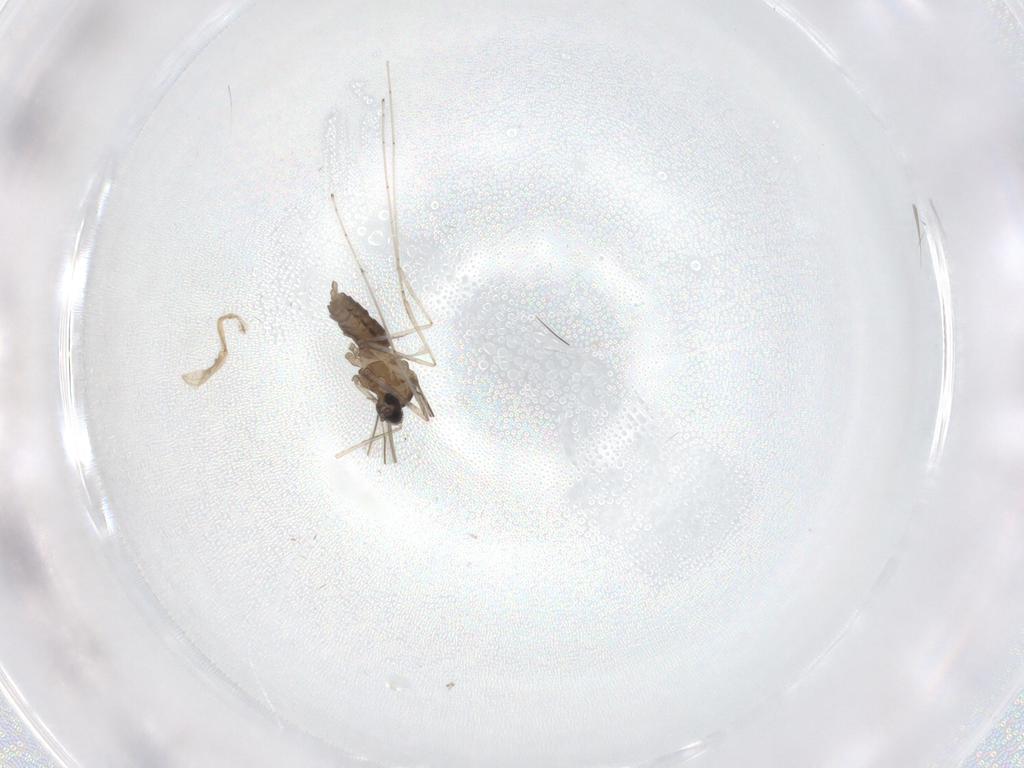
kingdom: Animalia
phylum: Arthropoda
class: Insecta
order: Diptera
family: Cecidomyiidae
